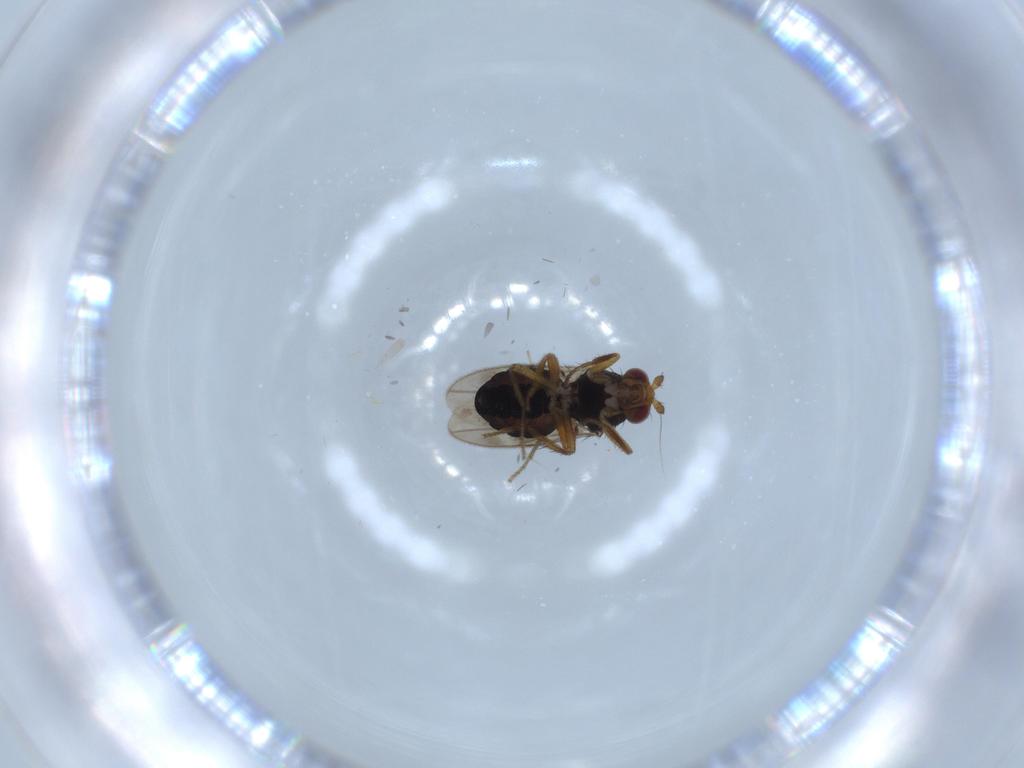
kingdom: Animalia
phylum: Arthropoda
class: Insecta
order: Diptera
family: Sphaeroceridae
